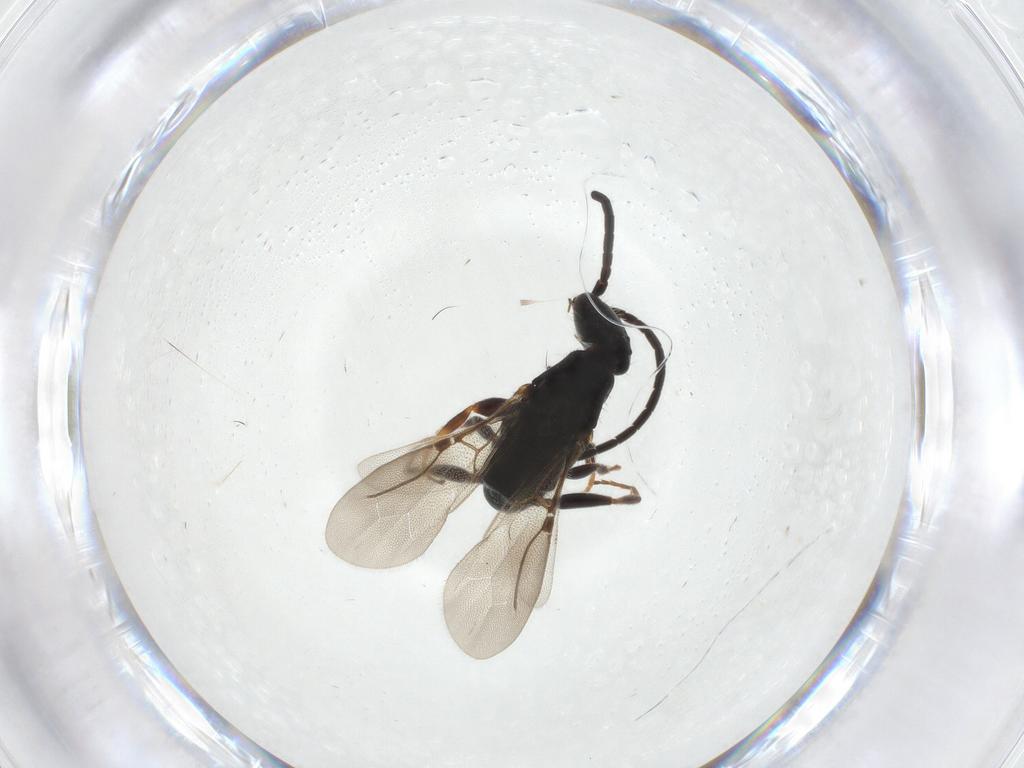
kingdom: Animalia
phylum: Arthropoda
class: Insecta
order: Hymenoptera
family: Bethylidae
